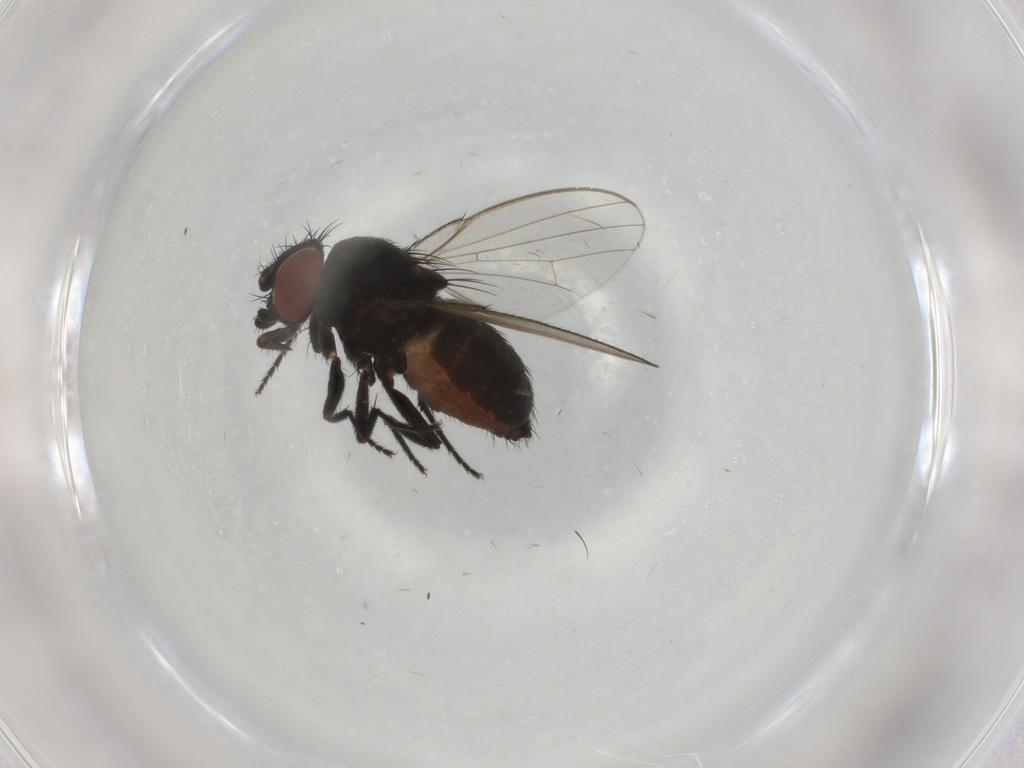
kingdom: Animalia
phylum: Arthropoda
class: Insecta
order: Diptera
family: Milichiidae
